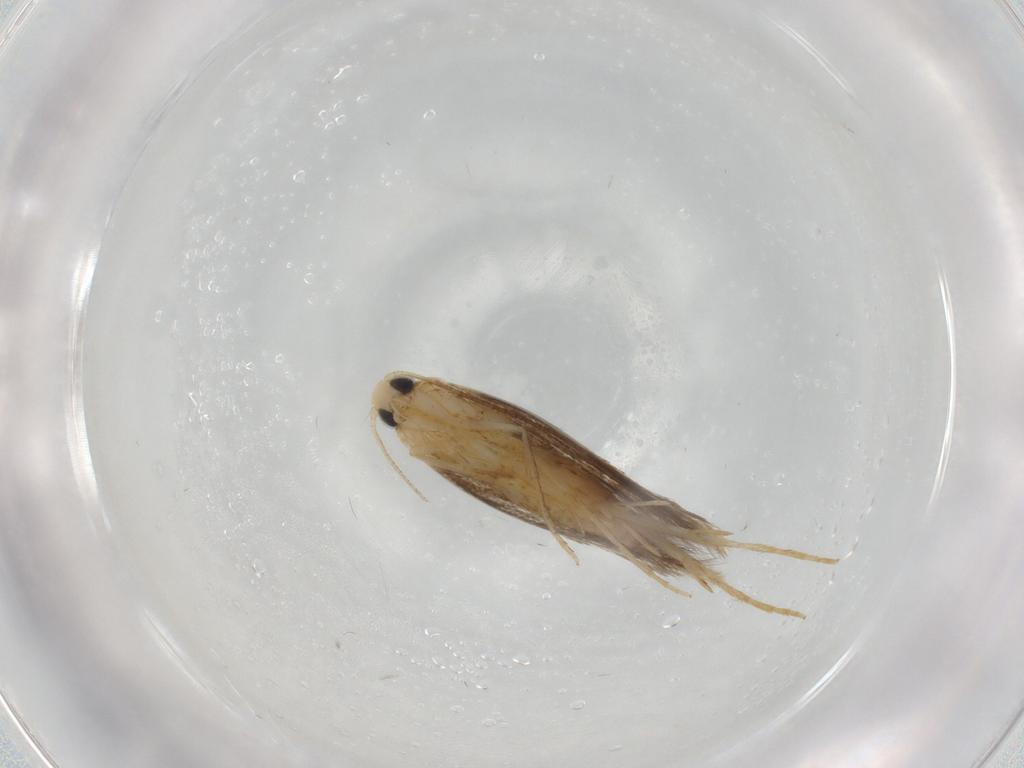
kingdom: Animalia
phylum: Arthropoda
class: Insecta
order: Lepidoptera
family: Tischeriidae
